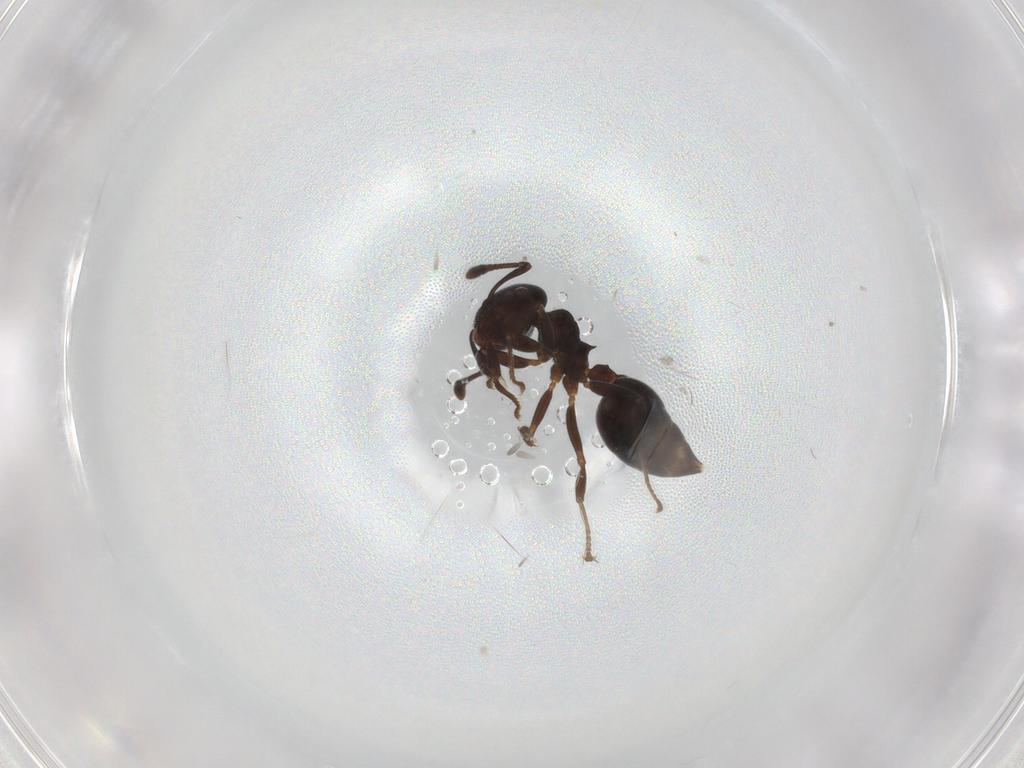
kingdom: Animalia
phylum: Arthropoda
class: Insecta
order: Hymenoptera
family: Formicidae
